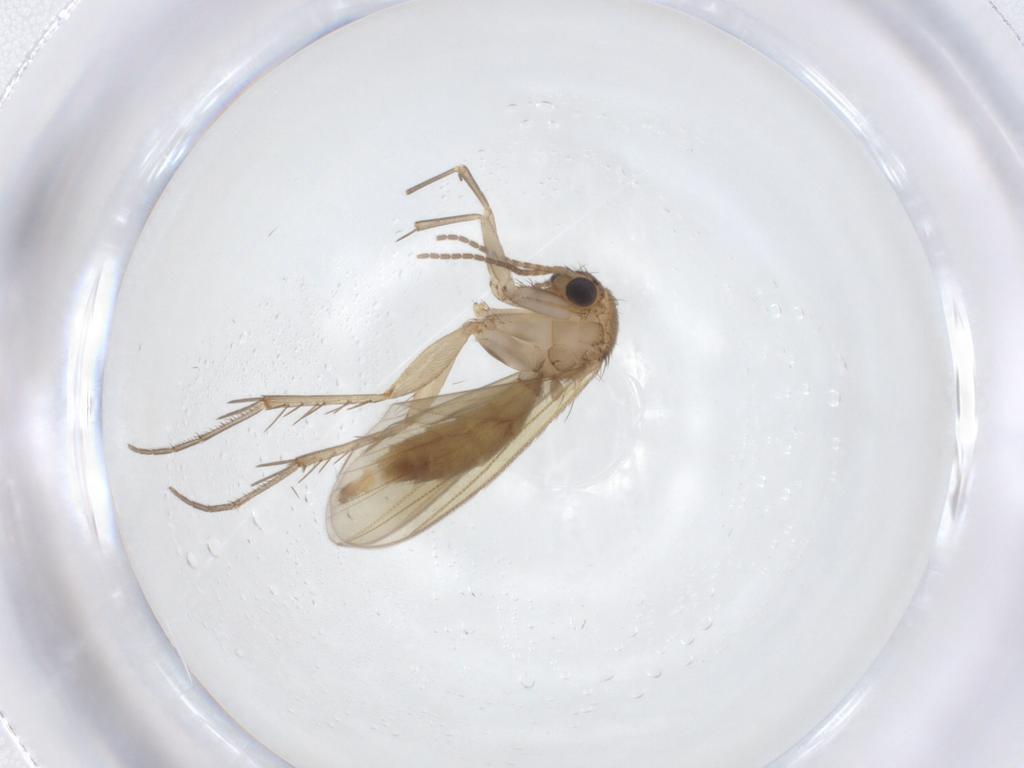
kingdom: Animalia
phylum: Arthropoda
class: Insecta
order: Diptera
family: Mycetophilidae
